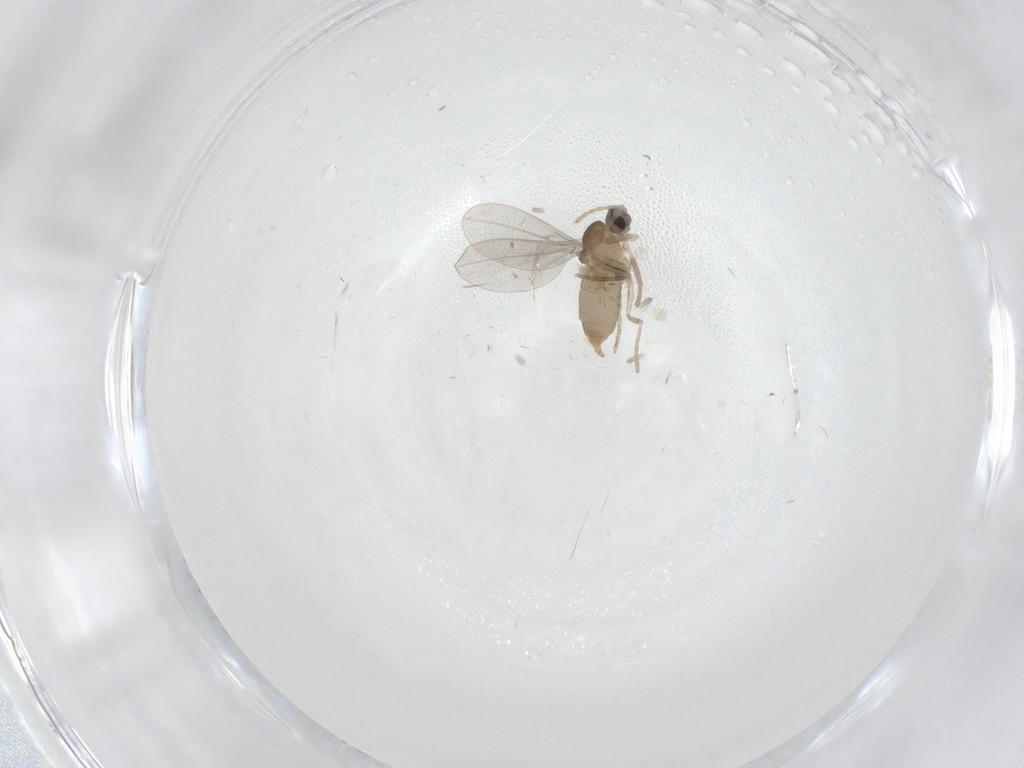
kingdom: Animalia
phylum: Arthropoda
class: Insecta
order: Diptera
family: Cecidomyiidae
